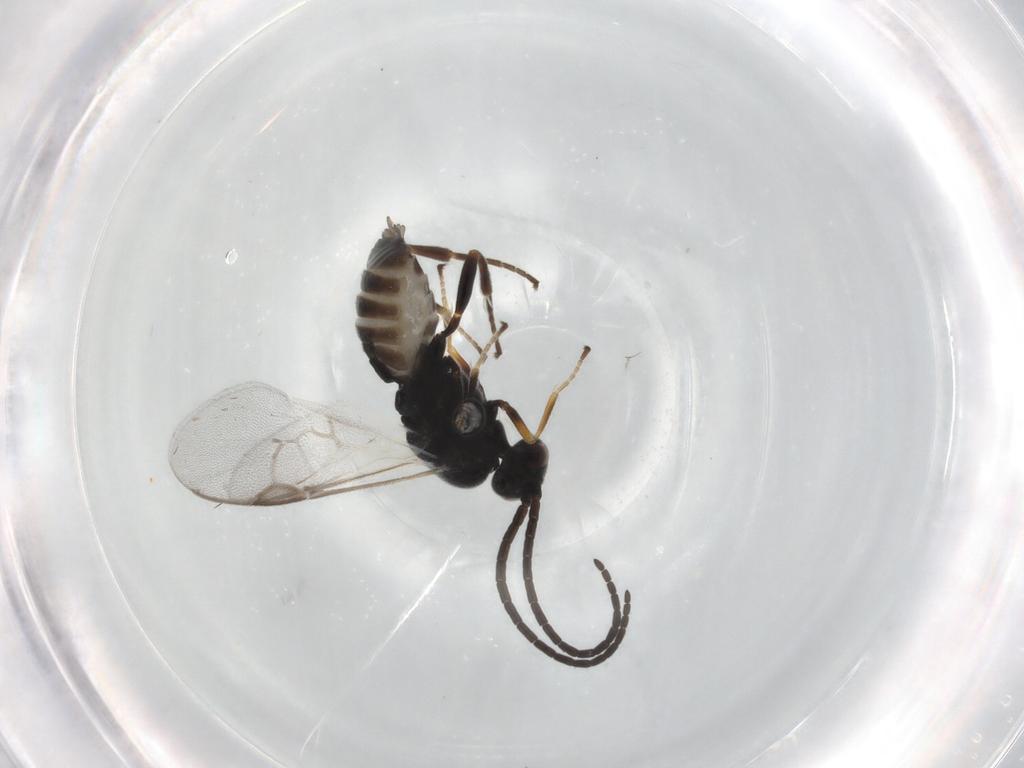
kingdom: Animalia
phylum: Arthropoda
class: Insecta
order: Hymenoptera
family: Braconidae
